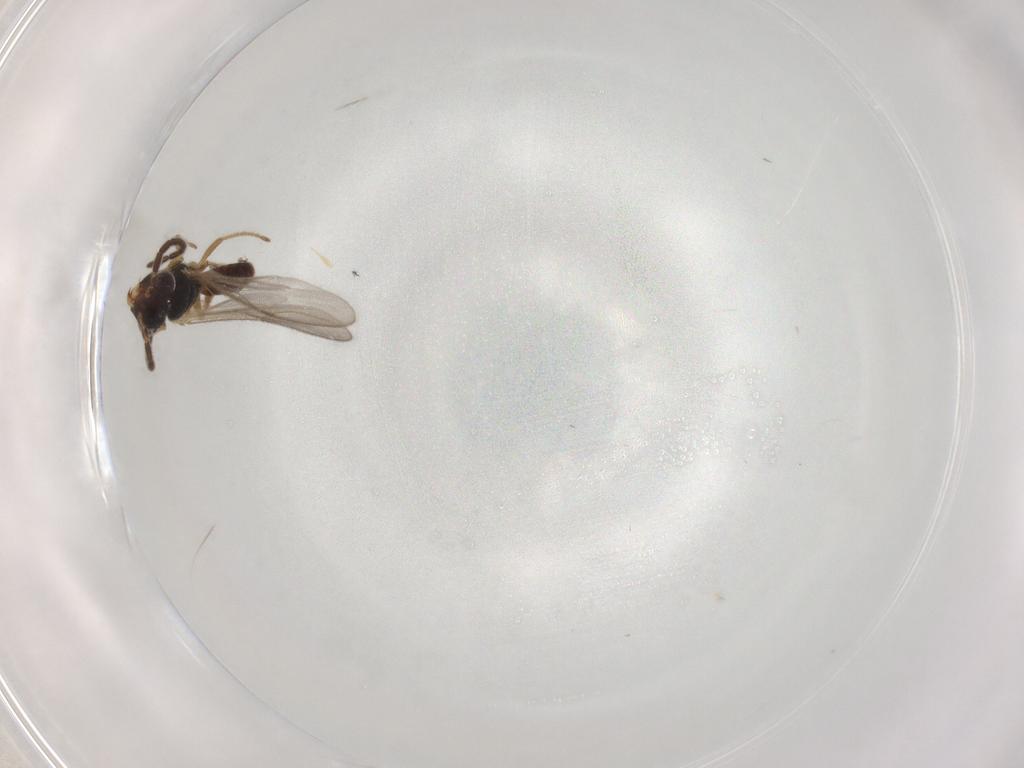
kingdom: Animalia
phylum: Arthropoda
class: Insecta
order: Hymenoptera
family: Dryinidae
